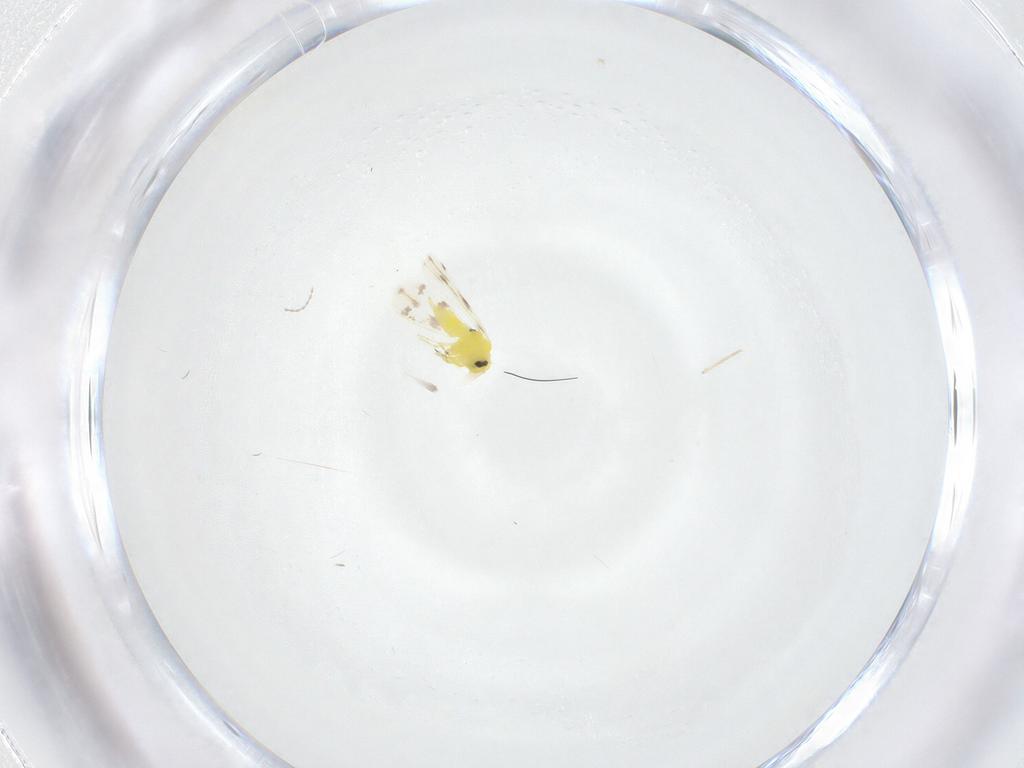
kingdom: Animalia
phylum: Arthropoda
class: Insecta
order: Hemiptera
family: Aleyrodidae
